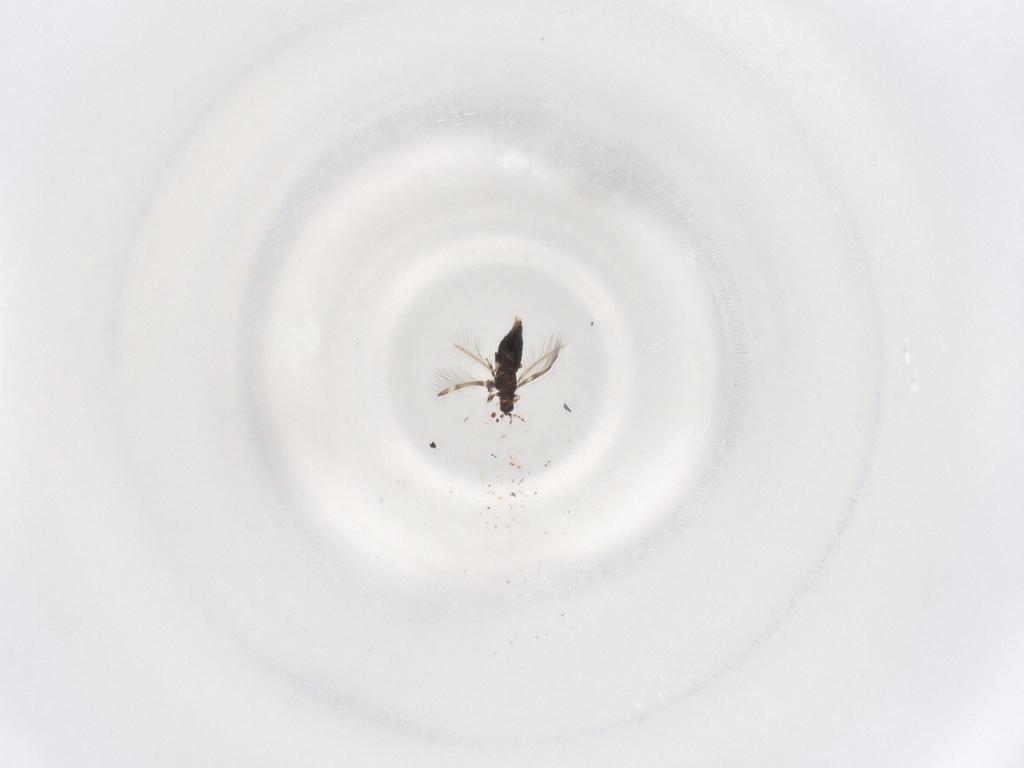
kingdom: Animalia
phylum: Arthropoda
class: Insecta
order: Thysanoptera
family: Thripidae
